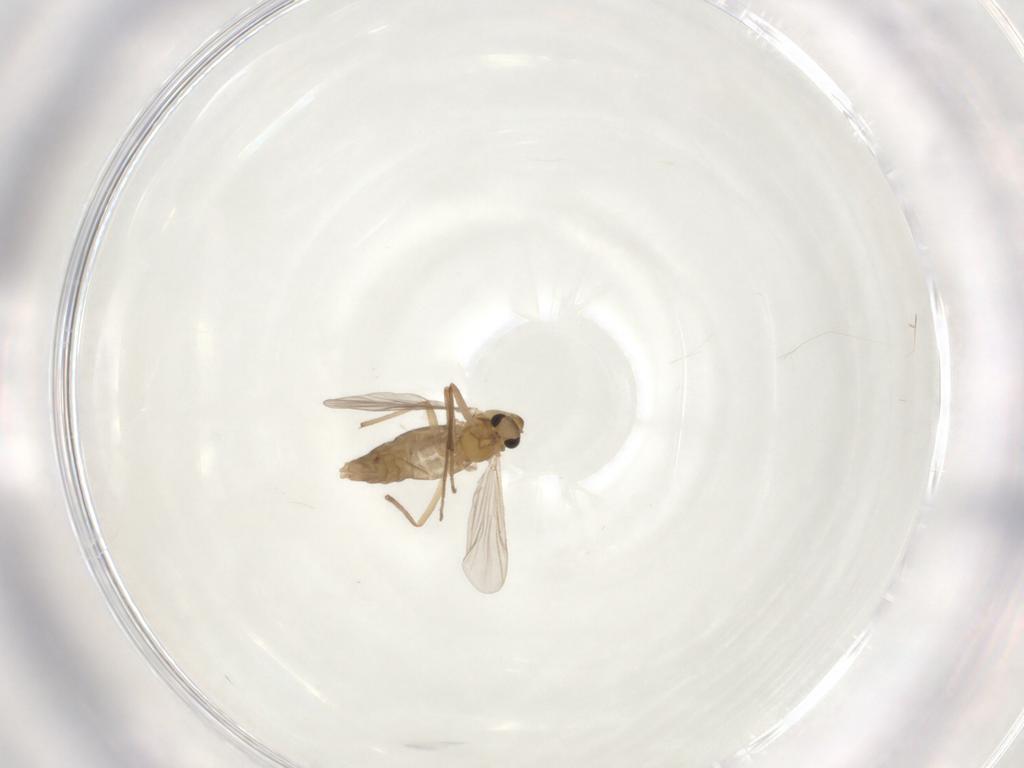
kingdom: Animalia
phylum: Arthropoda
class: Insecta
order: Diptera
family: Chironomidae
